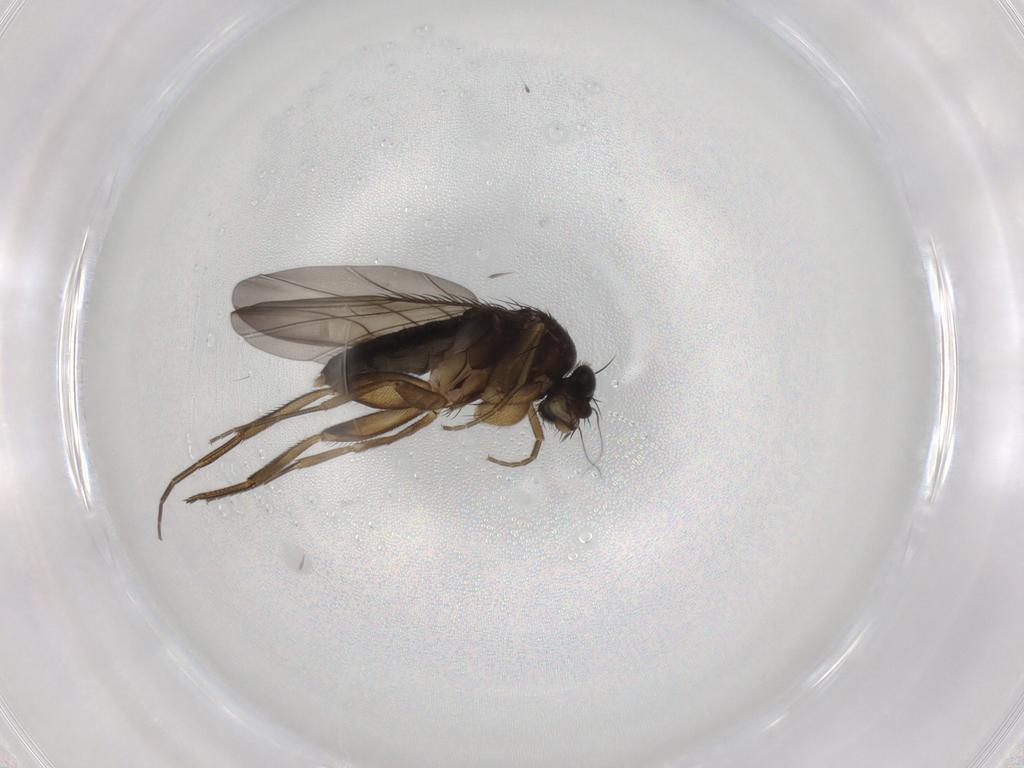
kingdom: Animalia
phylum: Arthropoda
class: Insecta
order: Diptera
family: Phoridae
